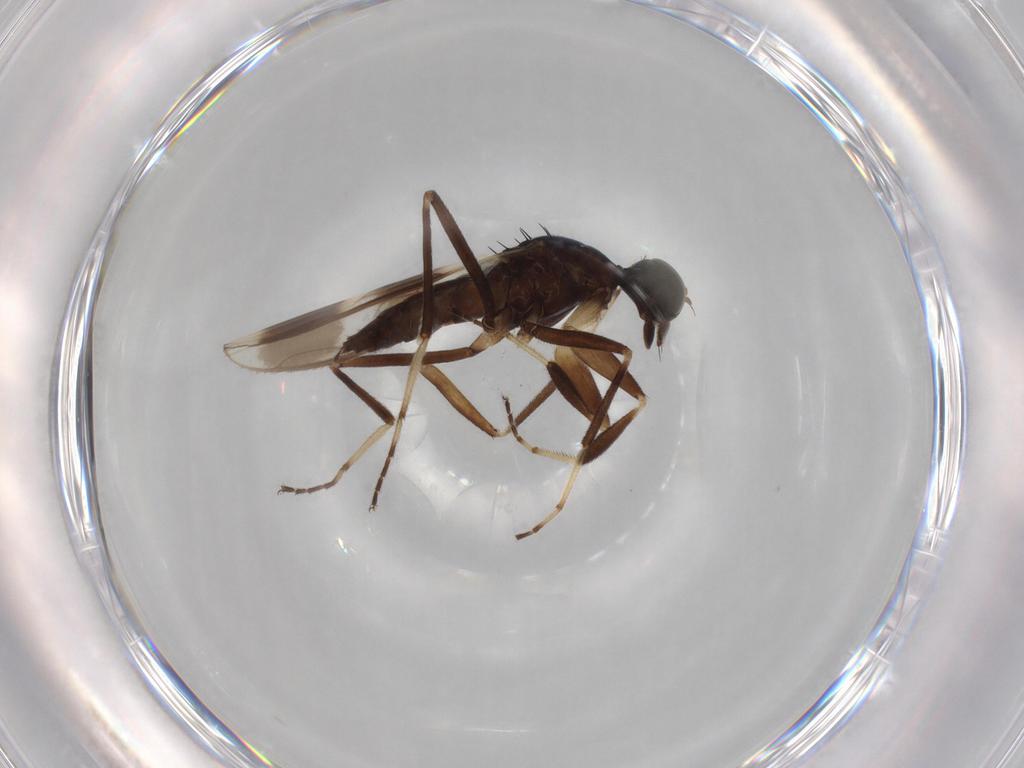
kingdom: Animalia
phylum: Arthropoda
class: Insecta
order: Diptera
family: Hybotidae
